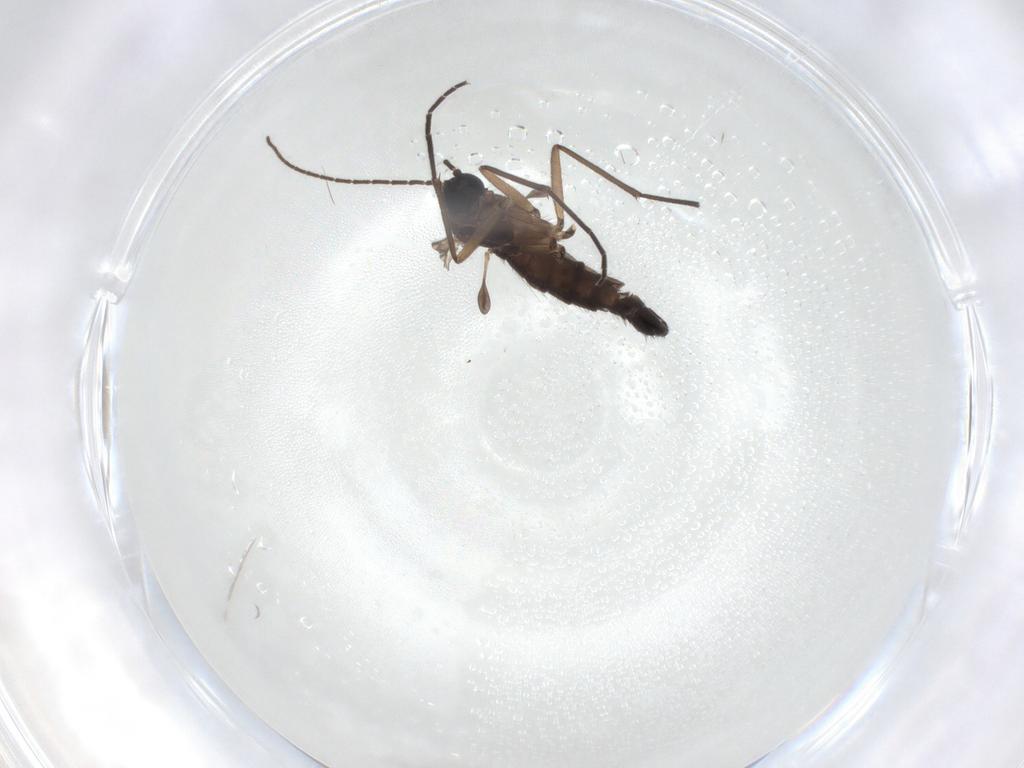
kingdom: Animalia
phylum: Arthropoda
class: Insecta
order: Diptera
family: Sciaridae
